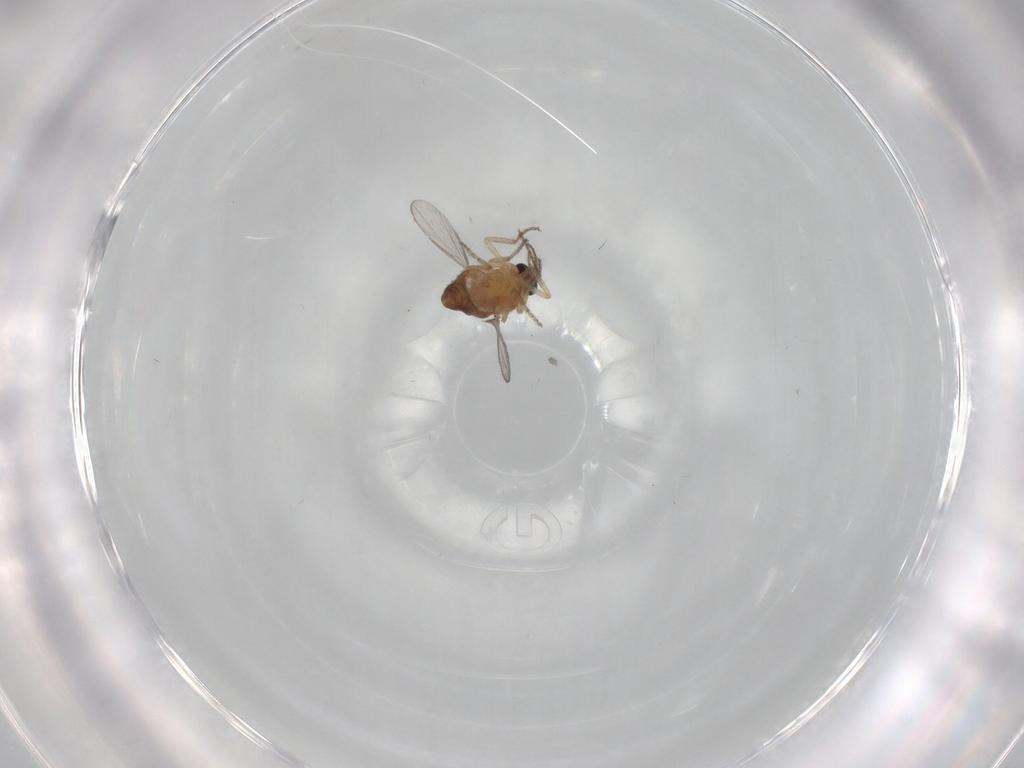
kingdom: Animalia
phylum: Arthropoda
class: Insecta
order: Diptera
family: Ceratopogonidae
